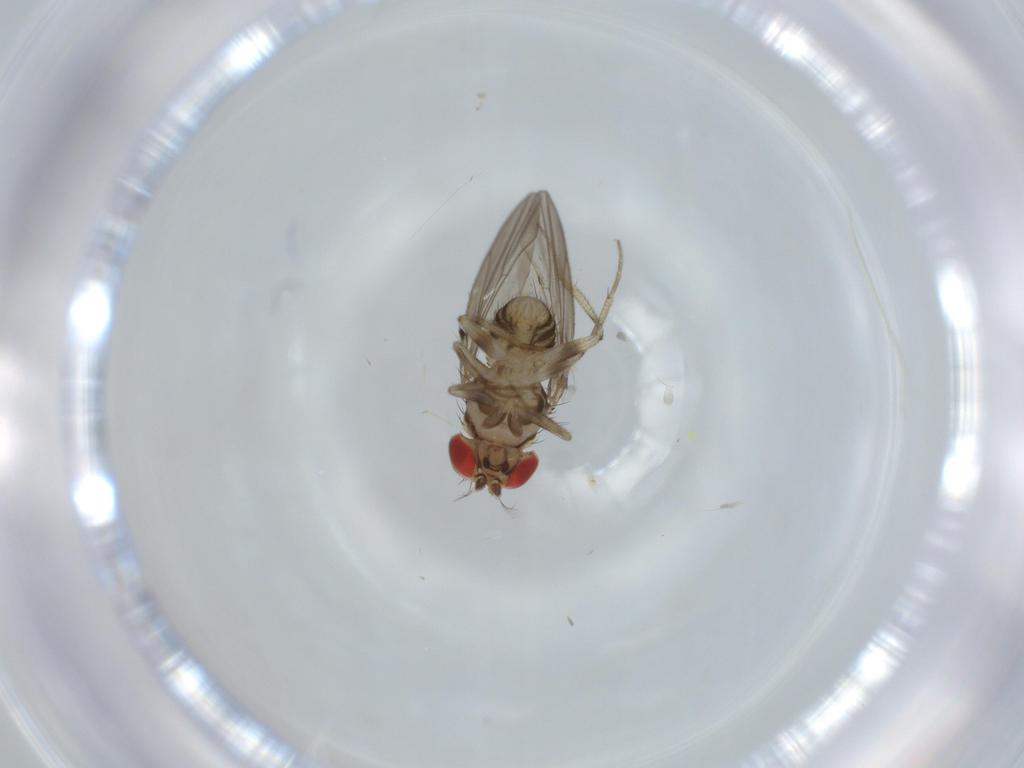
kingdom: Animalia
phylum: Arthropoda
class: Insecta
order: Diptera
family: Drosophilidae
